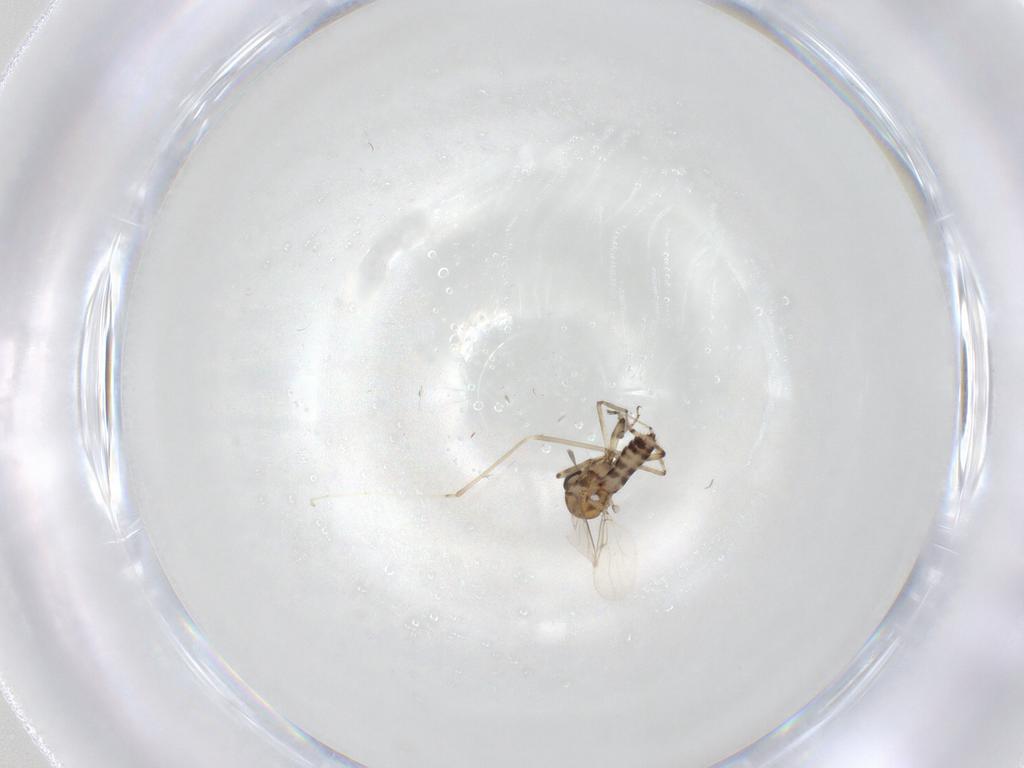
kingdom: Animalia
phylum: Arthropoda
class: Insecta
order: Diptera
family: Ceratopogonidae
